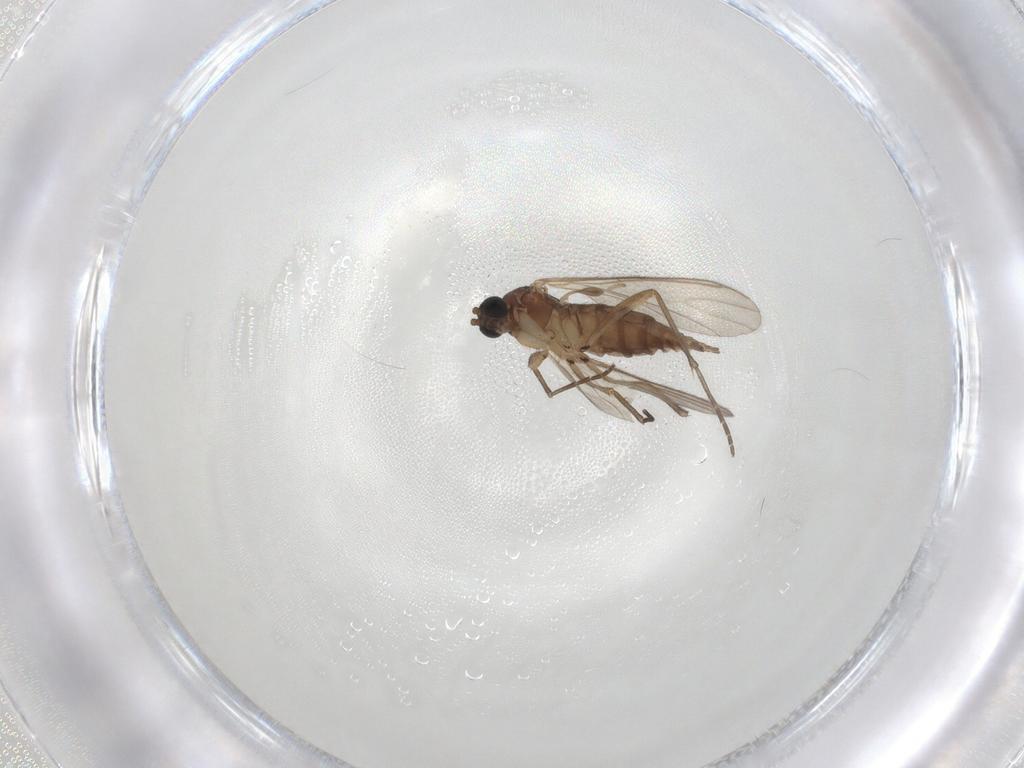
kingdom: Animalia
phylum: Arthropoda
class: Insecta
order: Diptera
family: Sciaridae
